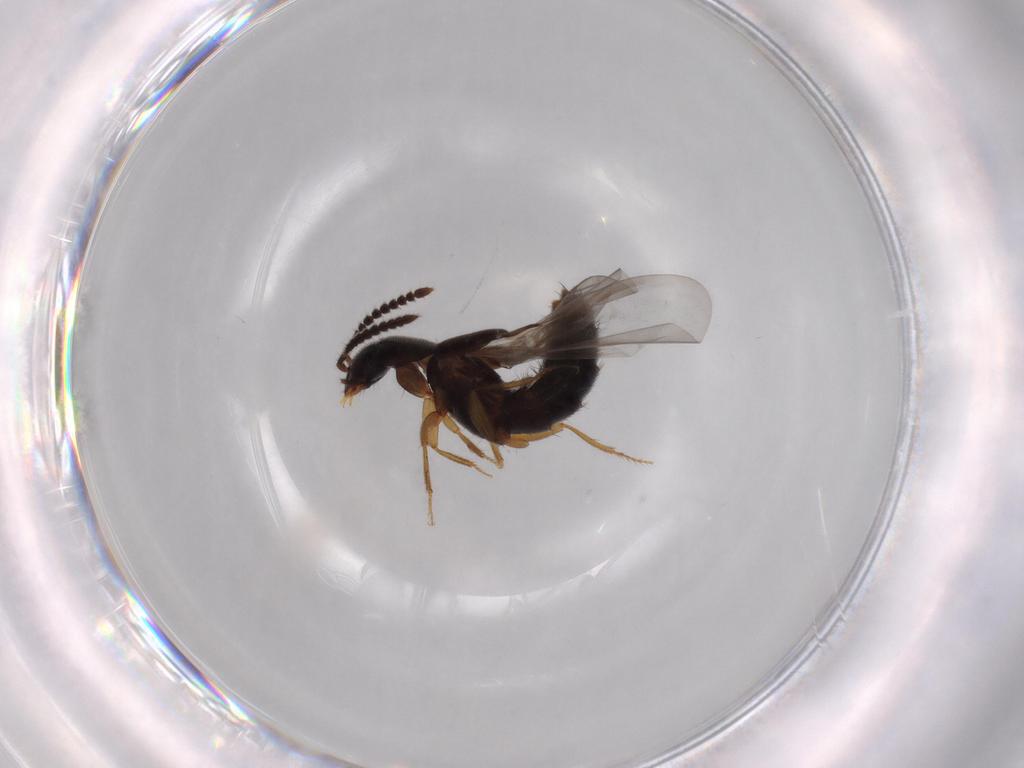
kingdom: Animalia
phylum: Arthropoda
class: Insecta
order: Coleoptera
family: Staphylinidae
